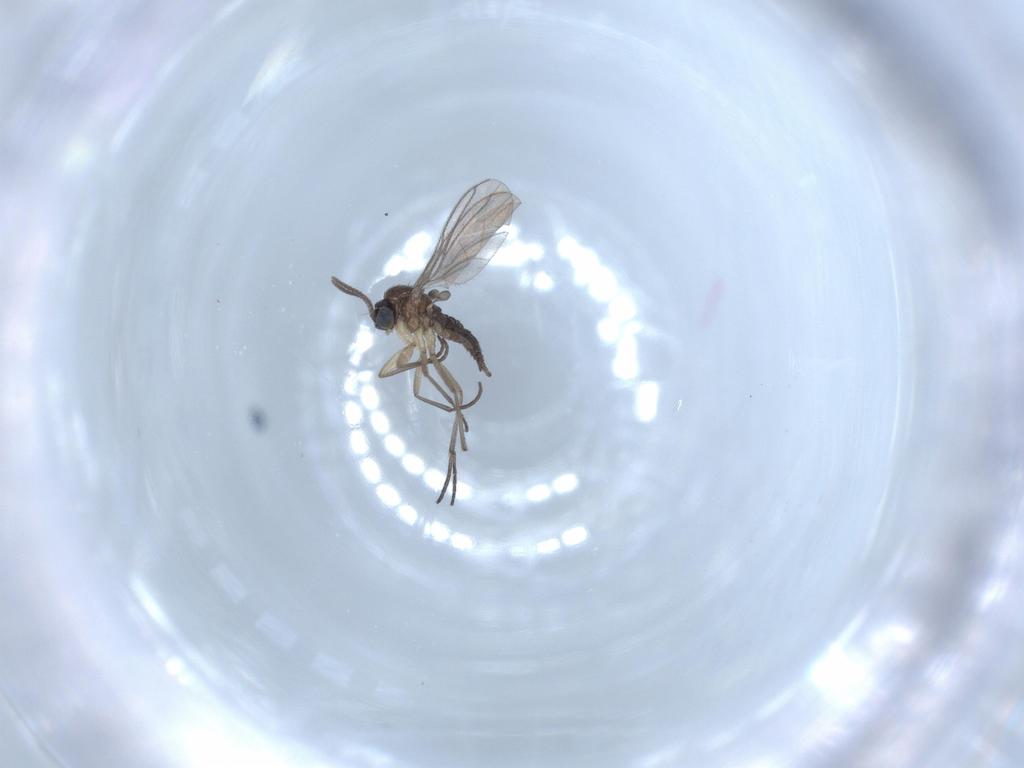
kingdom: Animalia
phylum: Arthropoda
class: Insecta
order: Diptera
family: Sciaridae
